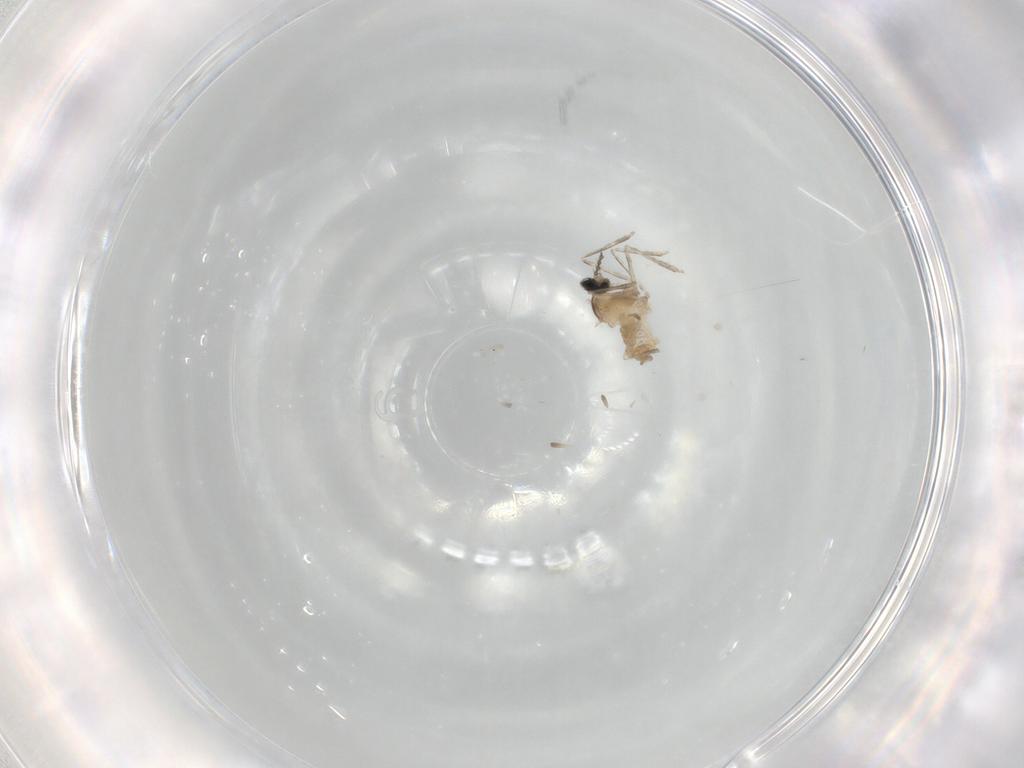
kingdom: Animalia
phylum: Arthropoda
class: Insecta
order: Diptera
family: Cecidomyiidae
